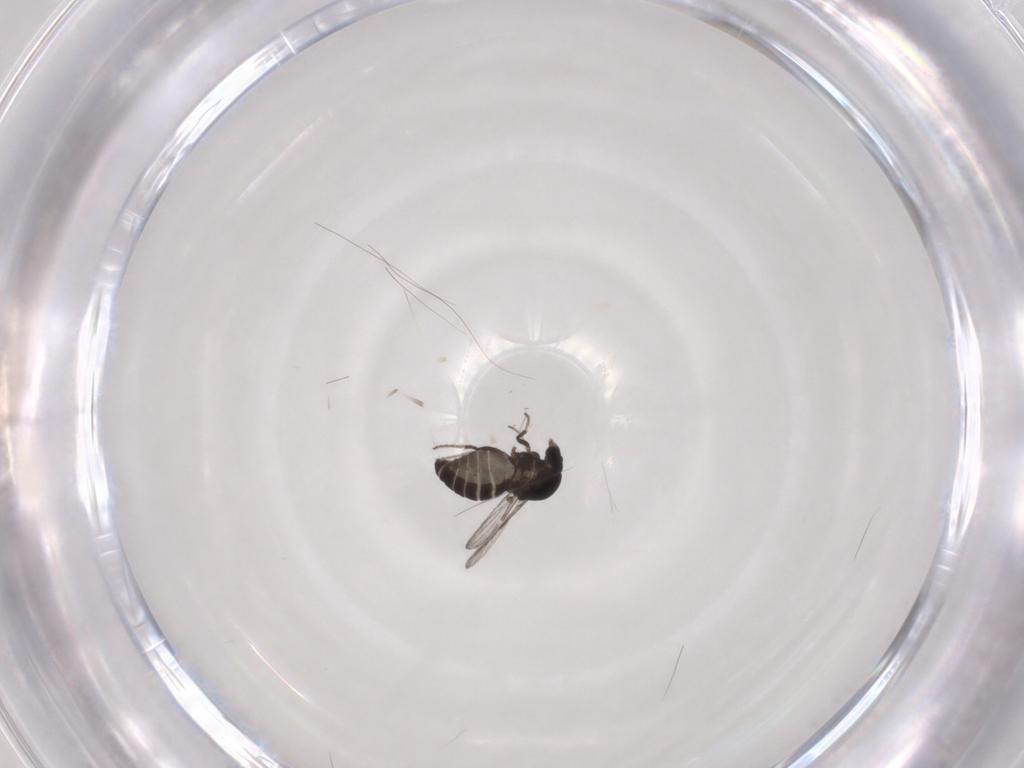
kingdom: Animalia
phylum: Arthropoda
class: Insecta
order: Diptera
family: Ceratopogonidae
